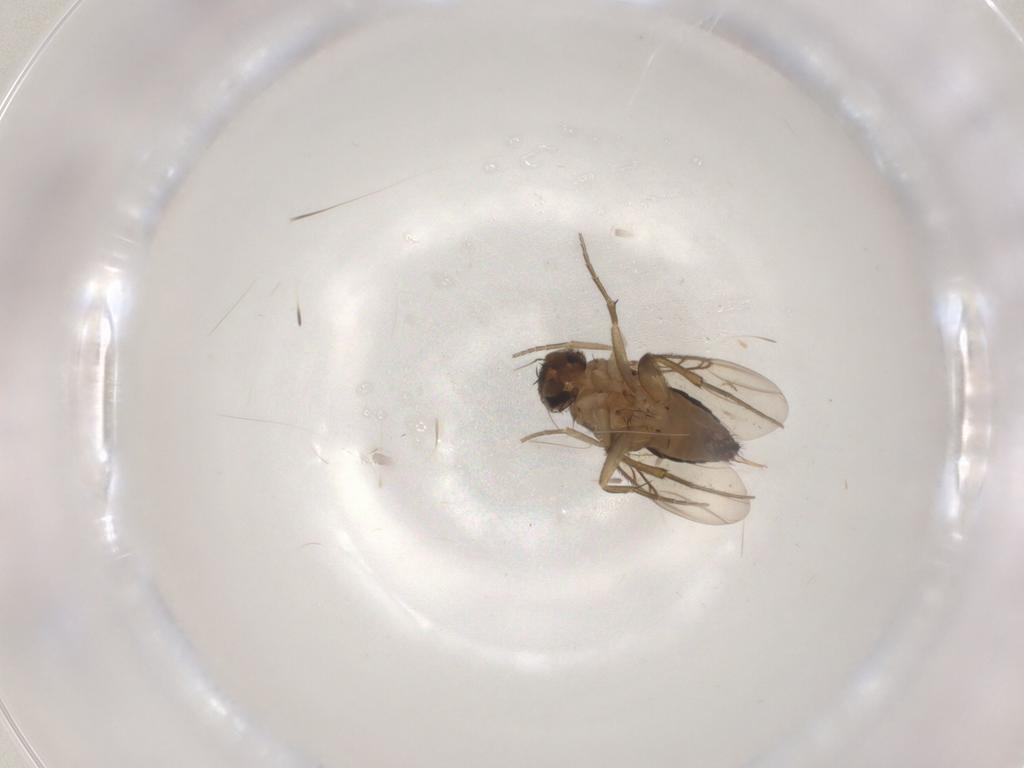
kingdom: Animalia
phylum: Arthropoda
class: Insecta
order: Diptera
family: Phoridae
